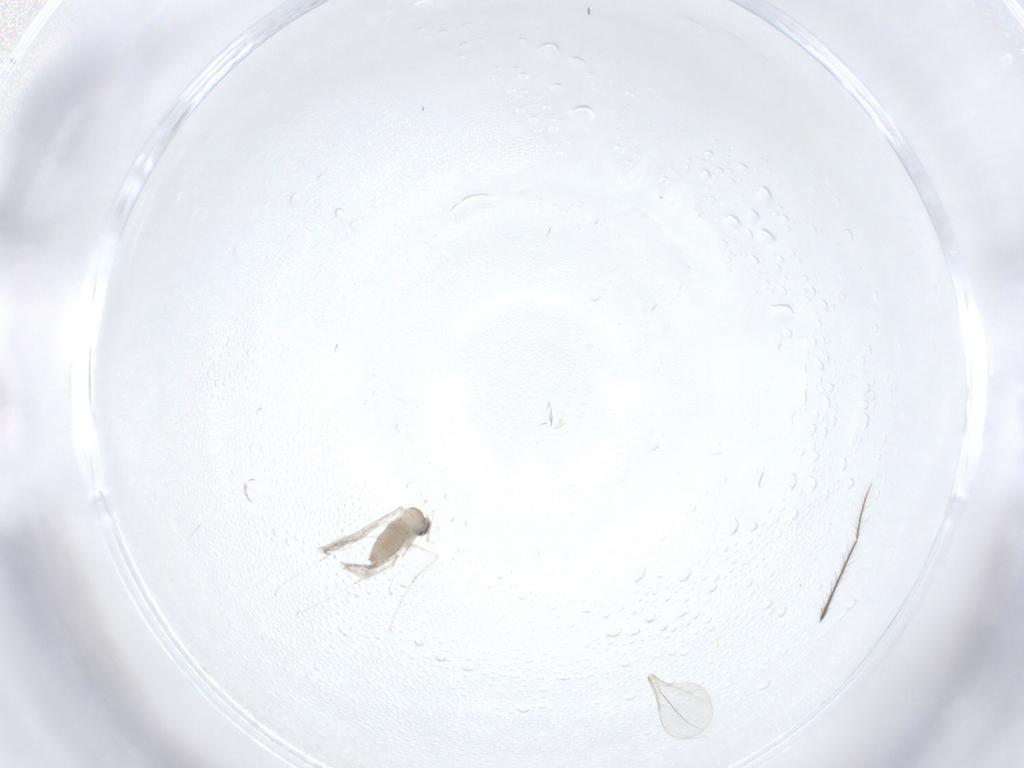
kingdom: Animalia
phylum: Arthropoda
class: Insecta
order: Diptera
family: Cecidomyiidae
